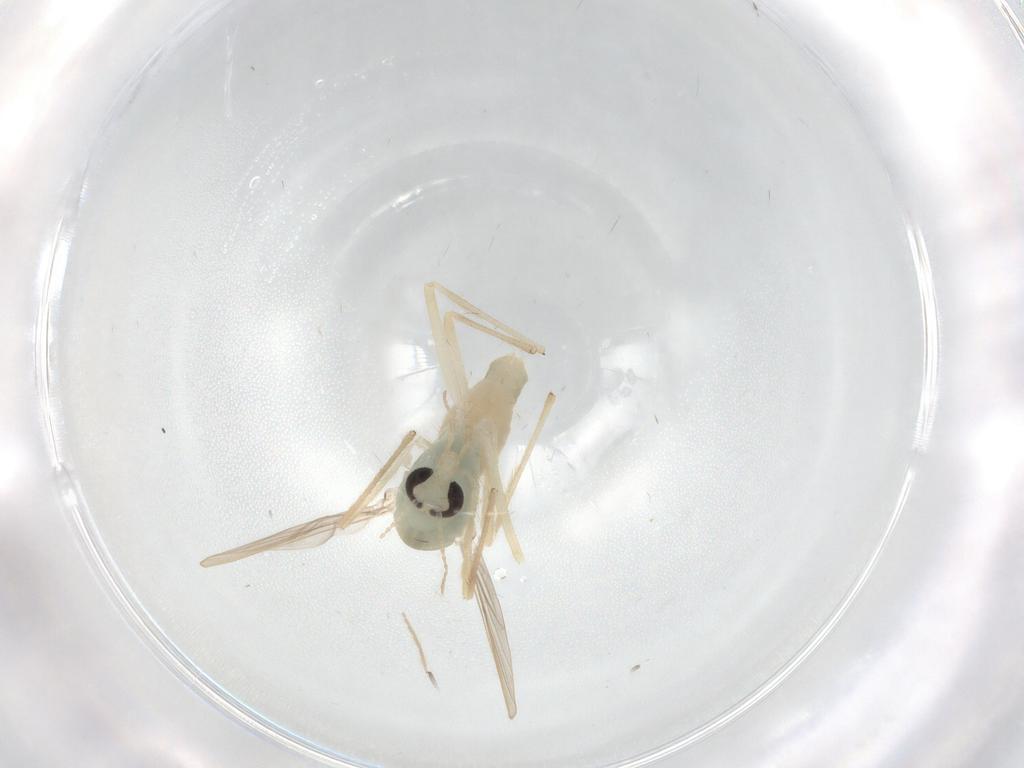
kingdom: Animalia
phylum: Arthropoda
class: Insecta
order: Diptera
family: Chironomidae
